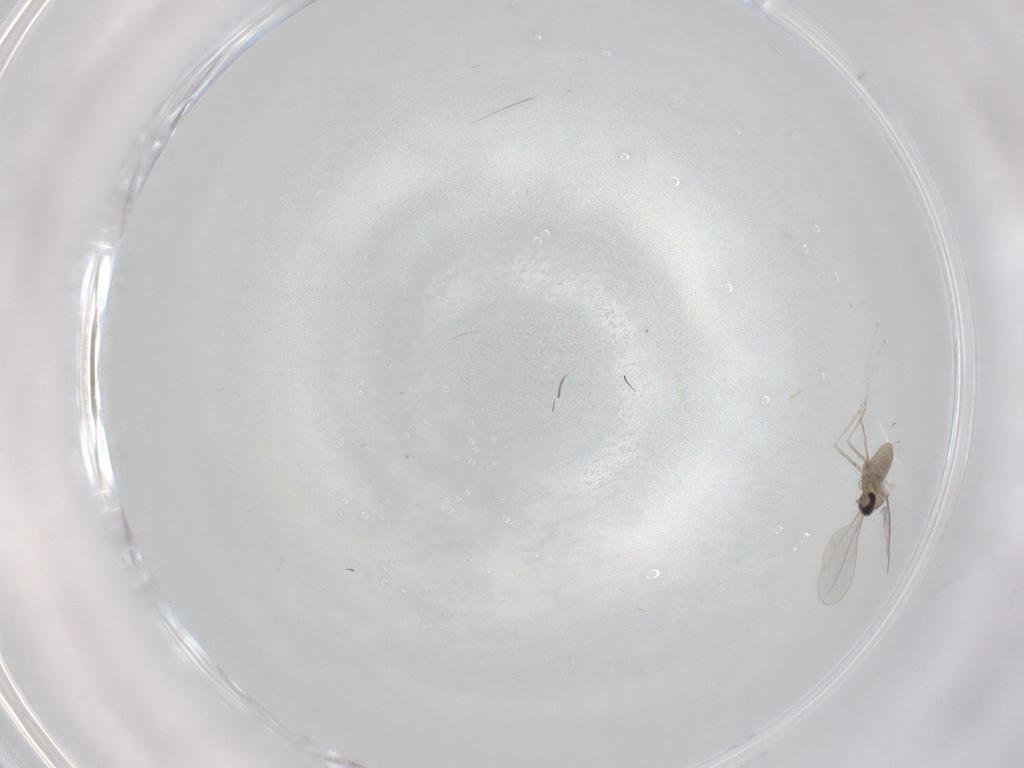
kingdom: Animalia
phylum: Arthropoda
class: Insecta
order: Diptera
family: Cecidomyiidae
